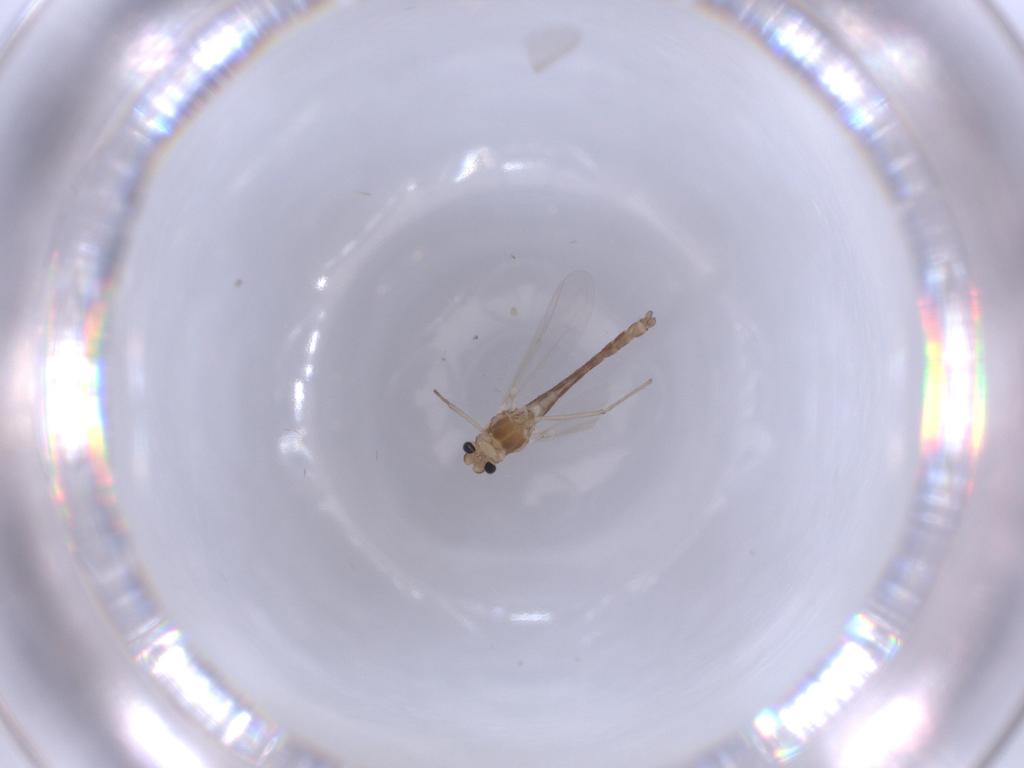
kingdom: Animalia
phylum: Arthropoda
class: Insecta
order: Diptera
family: Chironomidae
